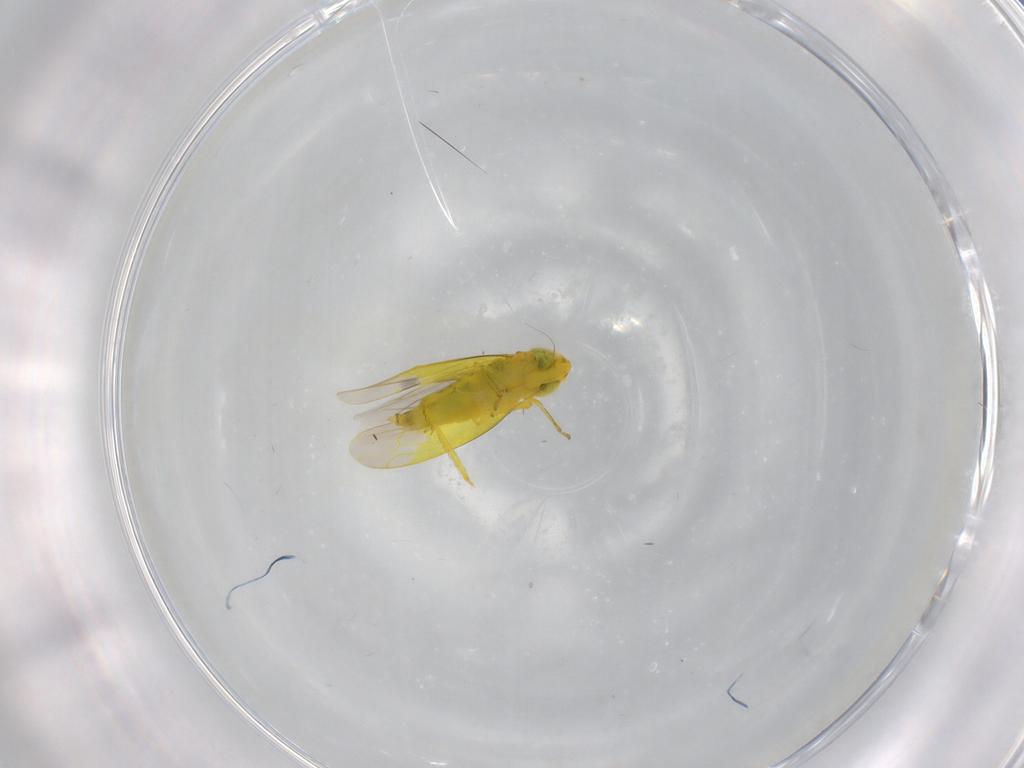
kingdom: Animalia
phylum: Arthropoda
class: Insecta
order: Hemiptera
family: Cicadellidae
